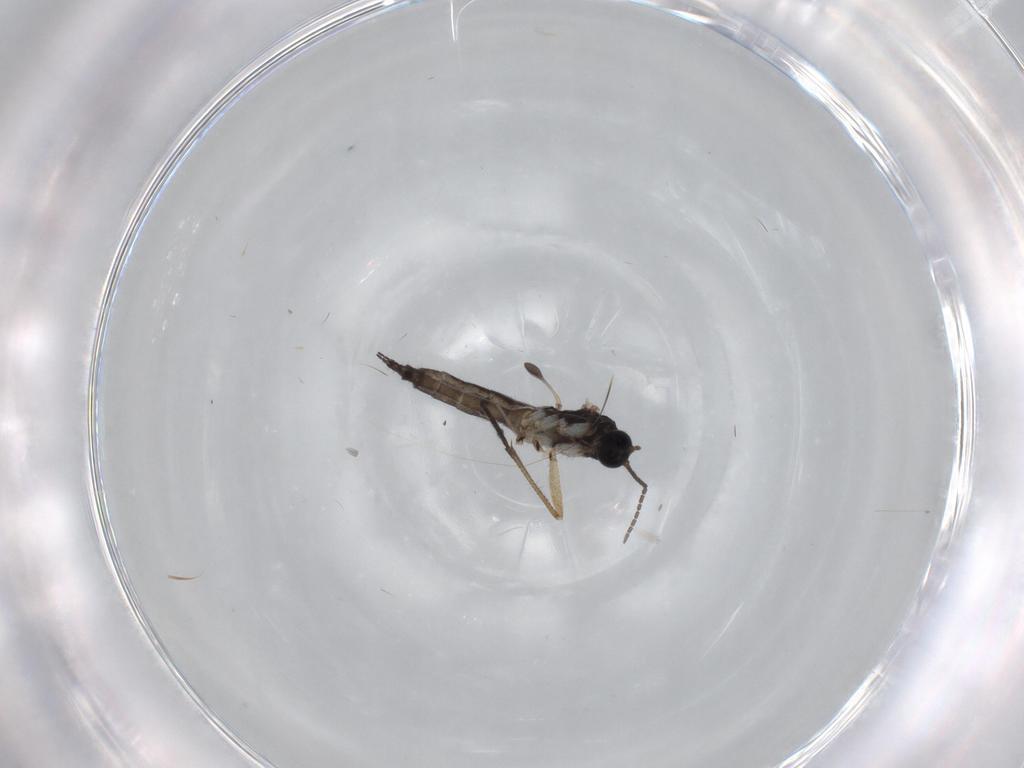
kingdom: Animalia
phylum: Arthropoda
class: Insecta
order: Diptera
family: Sciaridae
